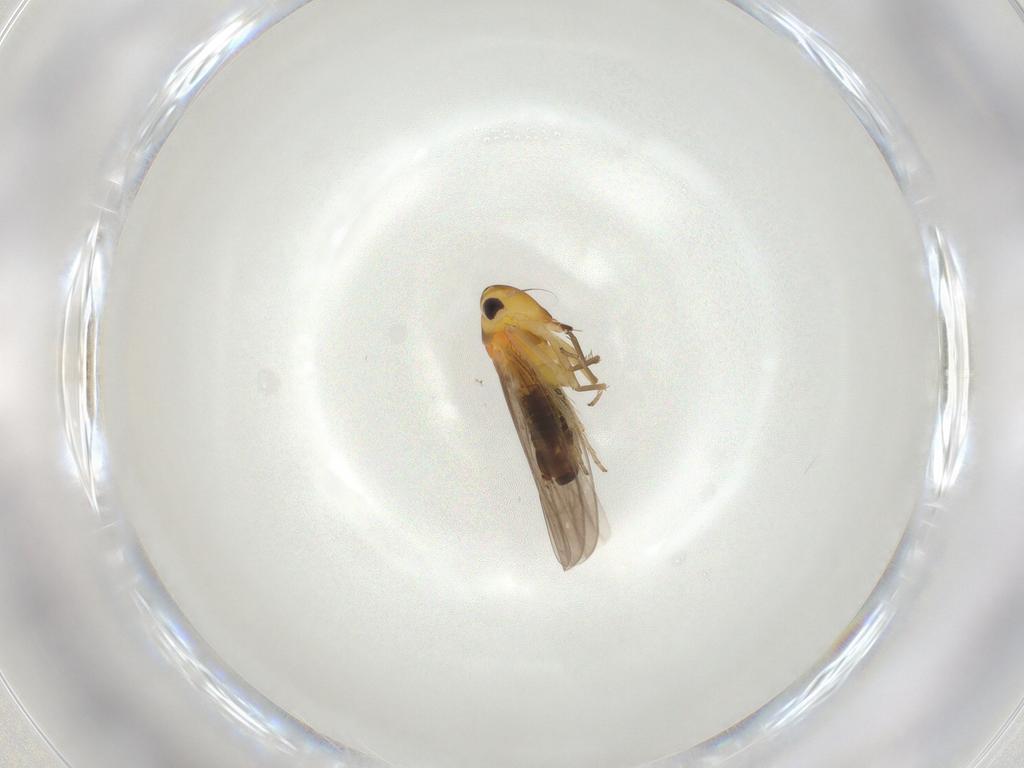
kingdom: Animalia
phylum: Arthropoda
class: Insecta
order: Hemiptera
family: Cicadellidae
